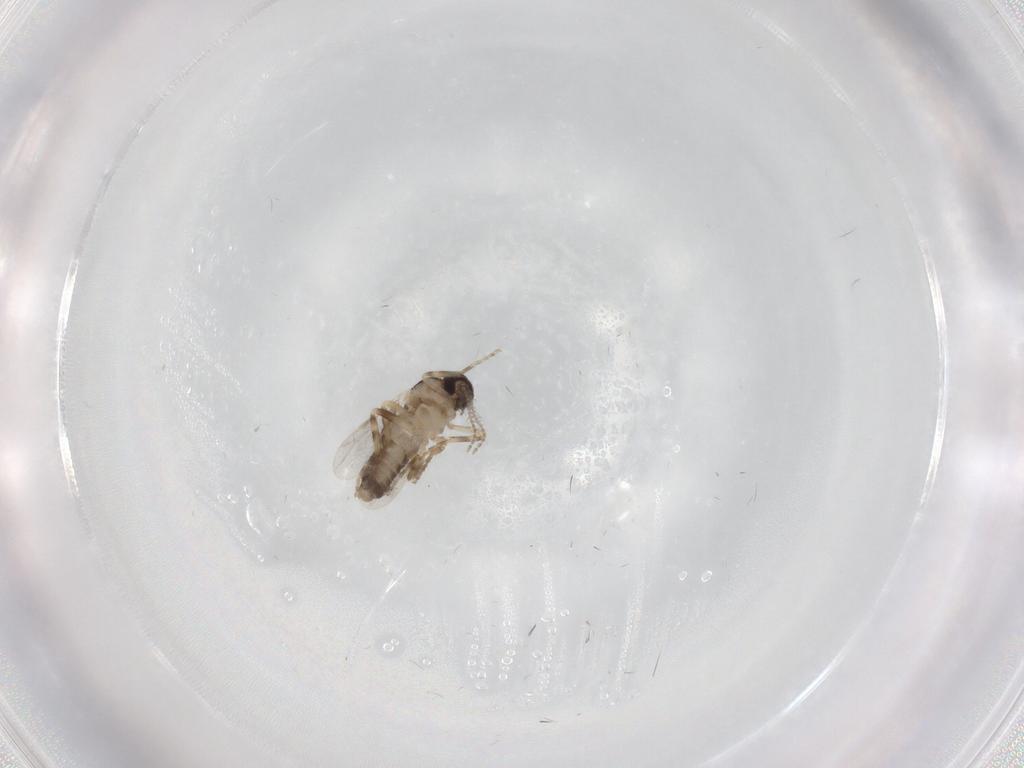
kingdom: Animalia
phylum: Arthropoda
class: Insecta
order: Diptera
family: Ceratopogonidae
